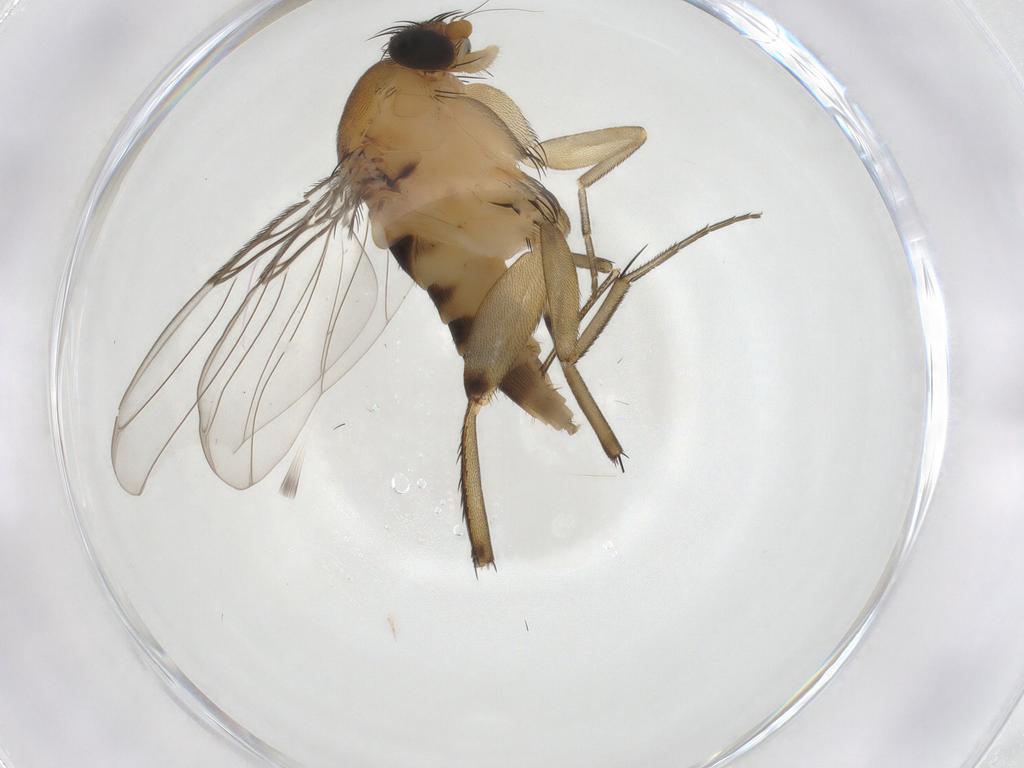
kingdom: Animalia
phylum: Arthropoda
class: Insecta
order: Diptera
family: Phoridae
